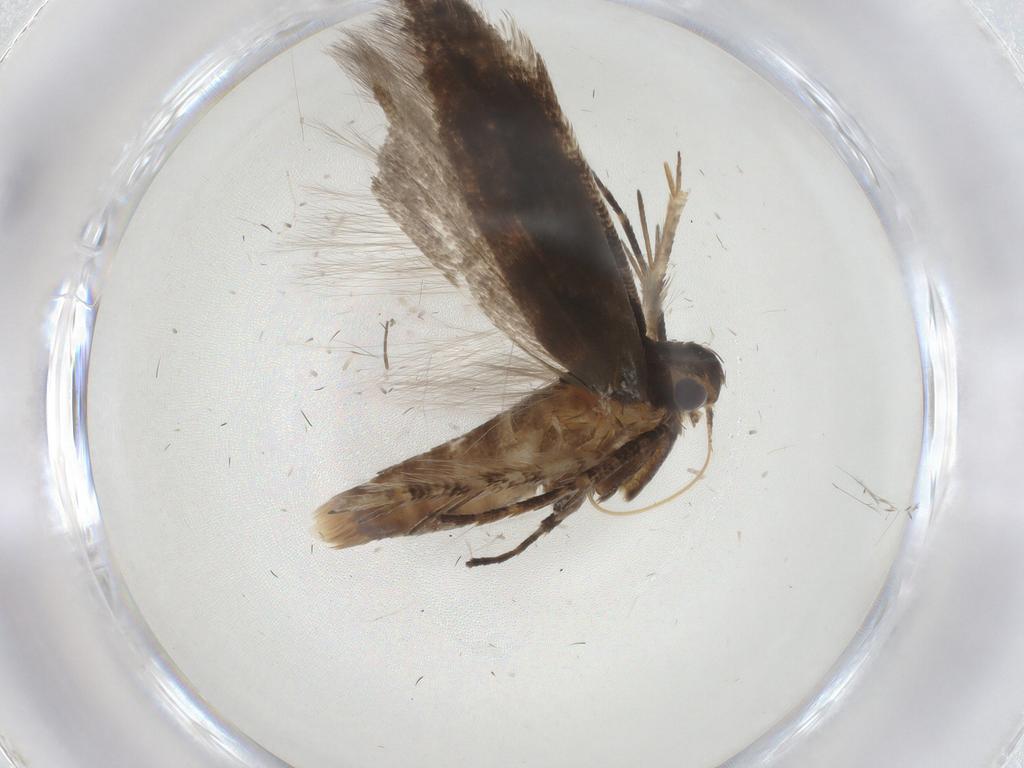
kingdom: Animalia
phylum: Arthropoda
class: Insecta
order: Lepidoptera
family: Gelechiidae
